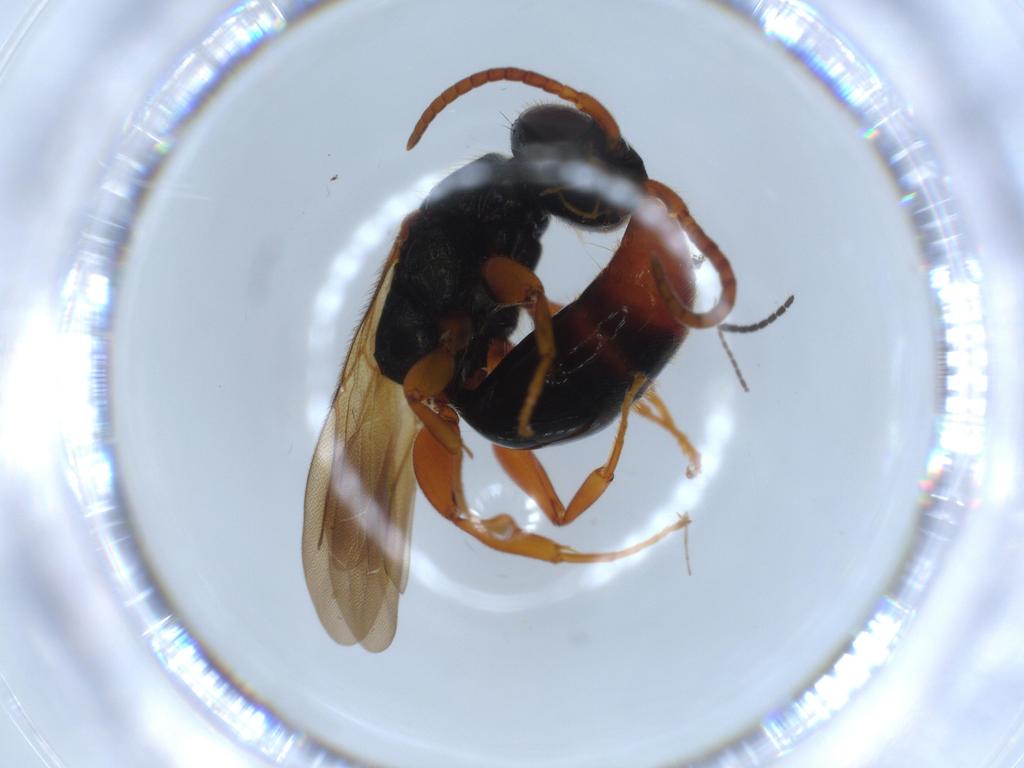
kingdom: Animalia
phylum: Arthropoda
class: Insecta
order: Hymenoptera
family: Bethylidae
